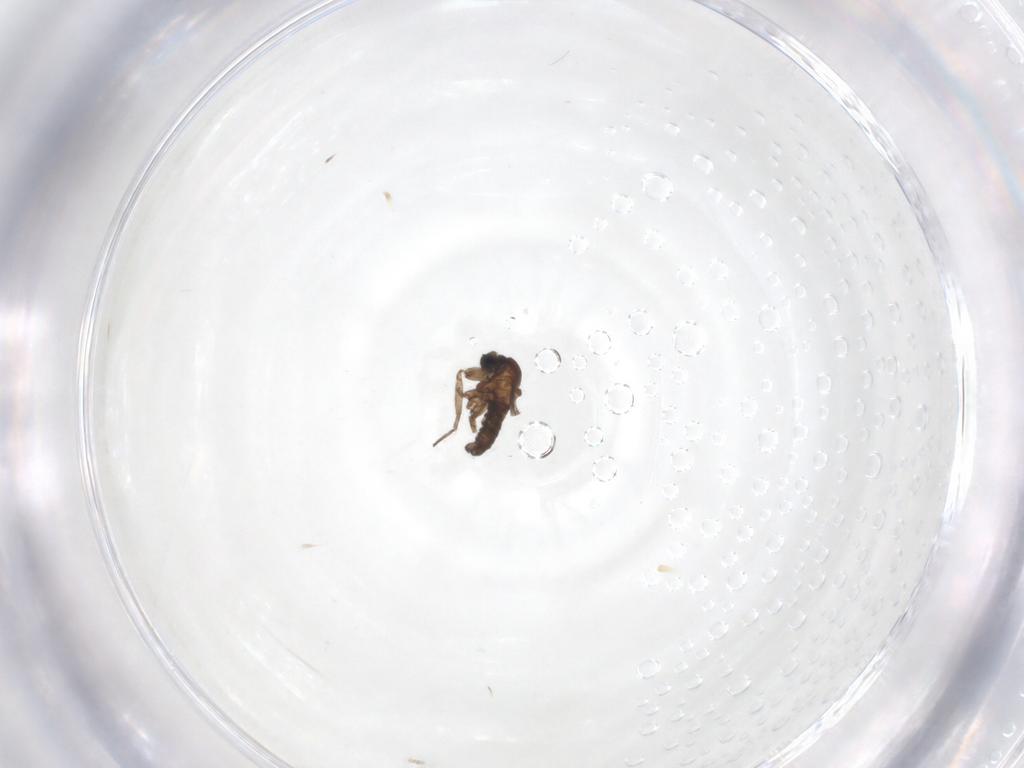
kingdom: Animalia
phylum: Arthropoda
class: Insecta
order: Diptera
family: Sciaridae
